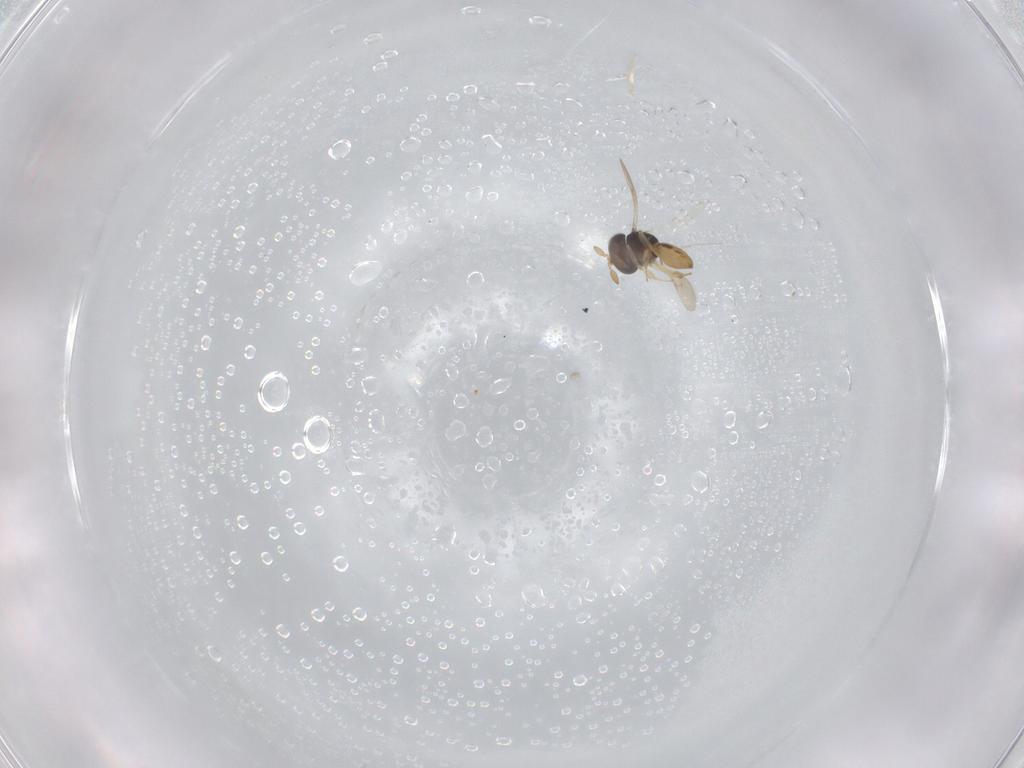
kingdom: Animalia
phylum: Arthropoda
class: Insecta
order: Hymenoptera
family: Scelionidae
